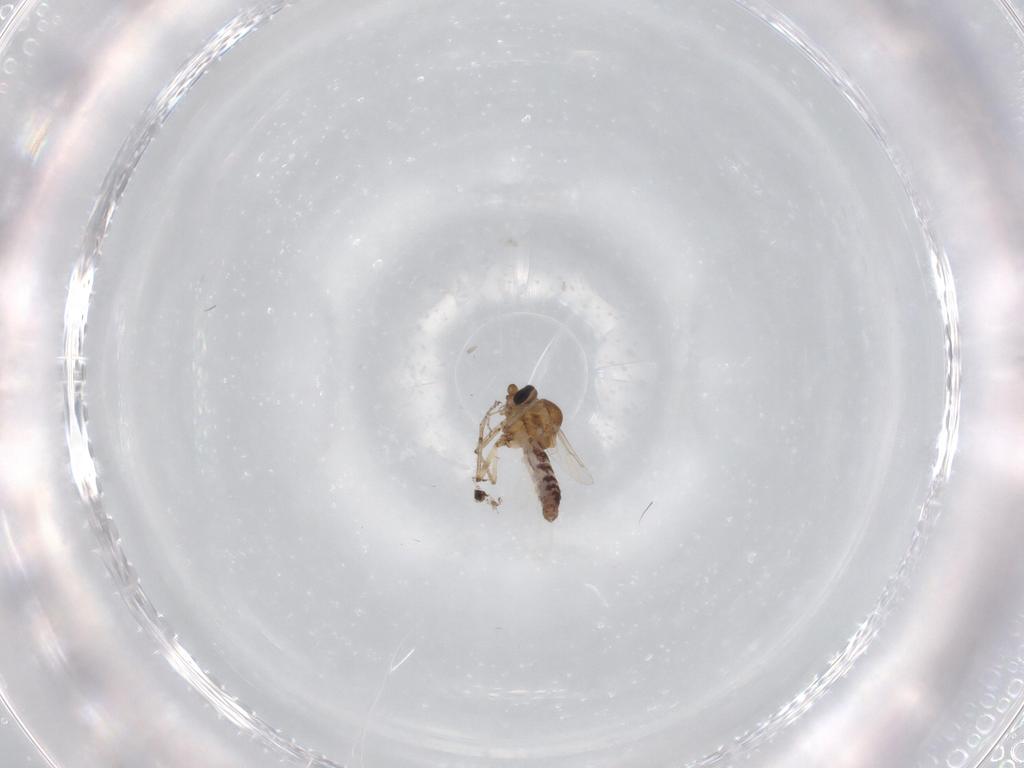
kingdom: Animalia
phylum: Arthropoda
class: Insecta
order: Diptera
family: Ceratopogonidae
